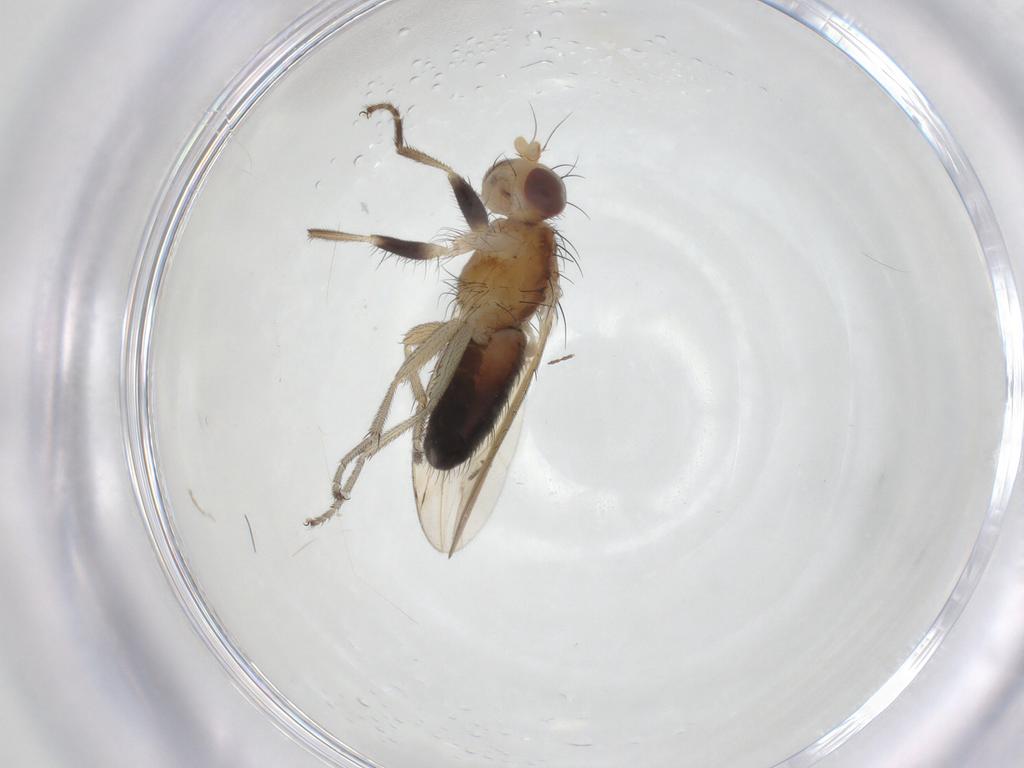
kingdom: Animalia
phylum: Arthropoda
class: Insecta
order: Diptera
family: Heleomyzidae
